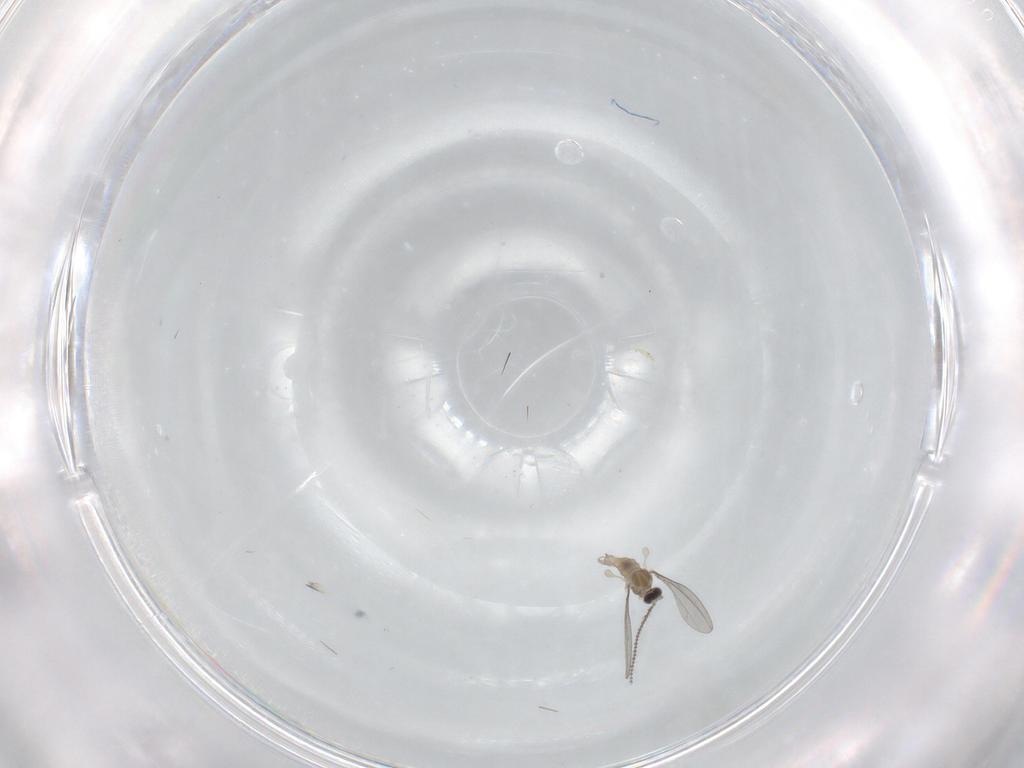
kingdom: Animalia
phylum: Arthropoda
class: Insecta
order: Diptera
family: Cecidomyiidae
